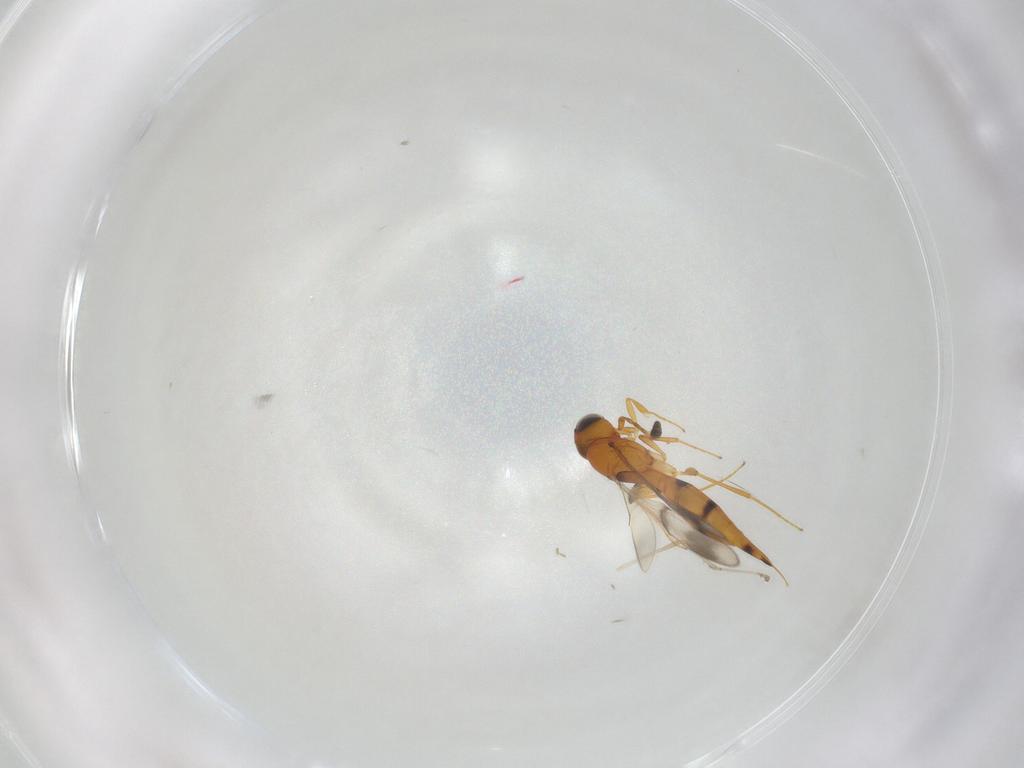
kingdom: Animalia
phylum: Arthropoda
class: Insecta
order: Hymenoptera
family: Scelionidae
